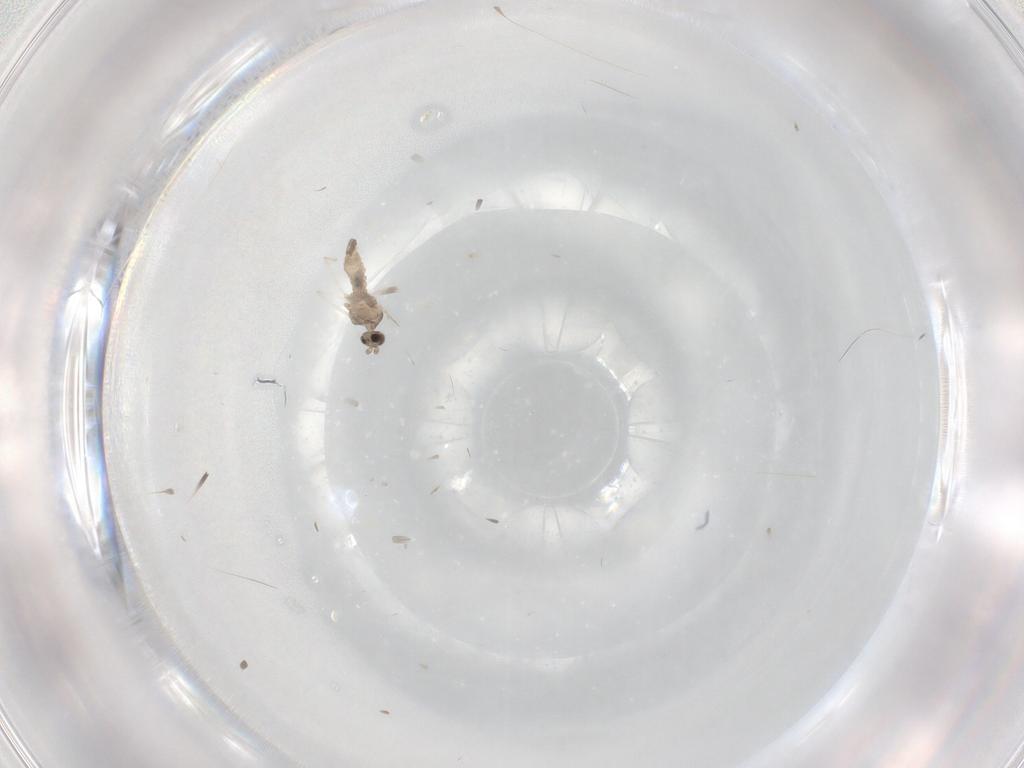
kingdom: Animalia
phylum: Arthropoda
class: Insecta
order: Diptera
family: Cecidomyiidae
